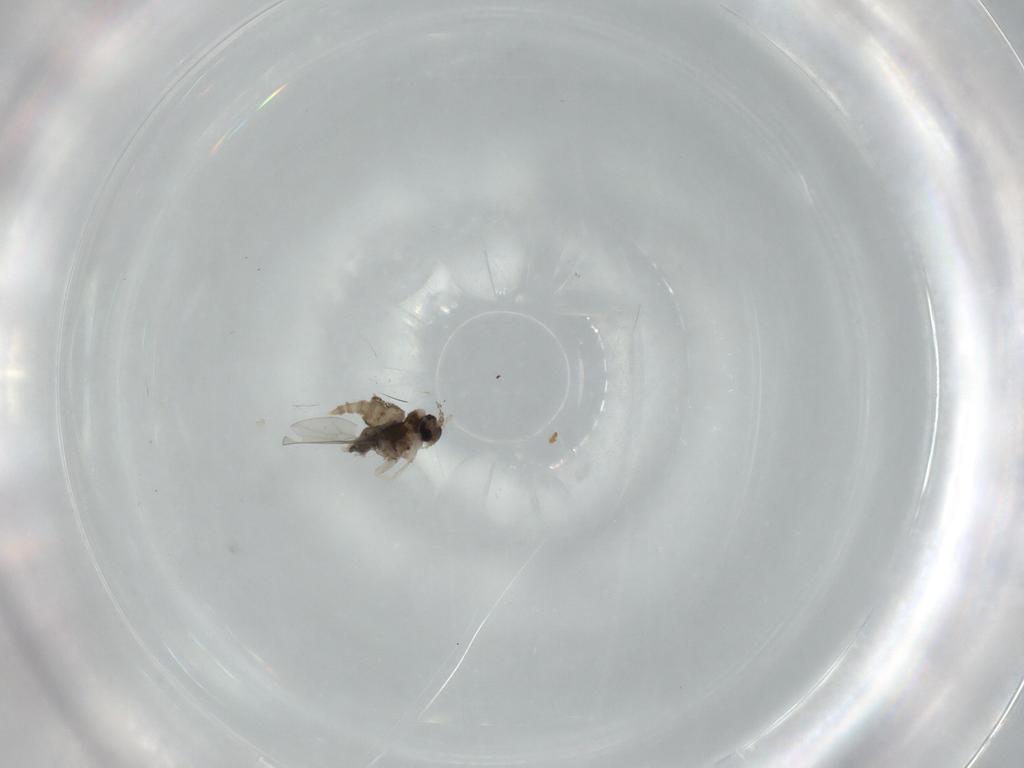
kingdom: Animalia
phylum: Arthropoda
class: Insecta
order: Diptera
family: Cecidomyiidae
